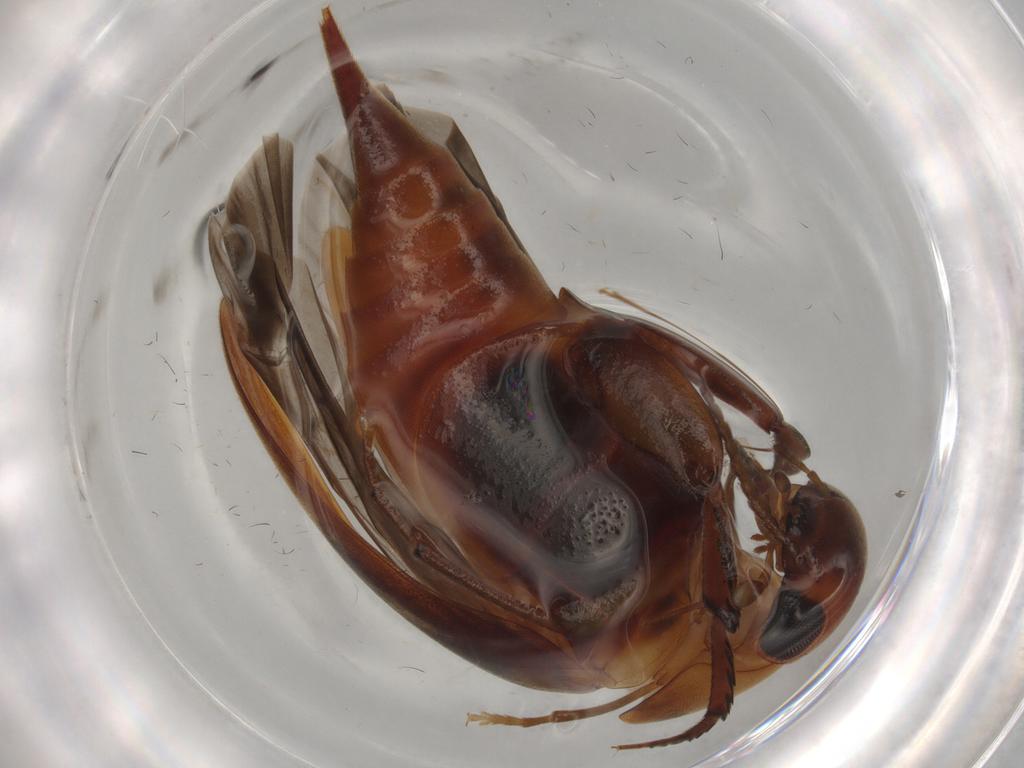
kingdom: Animalia
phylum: Arthropoda
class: Insecta
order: Coleoptera
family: Mordellidae
